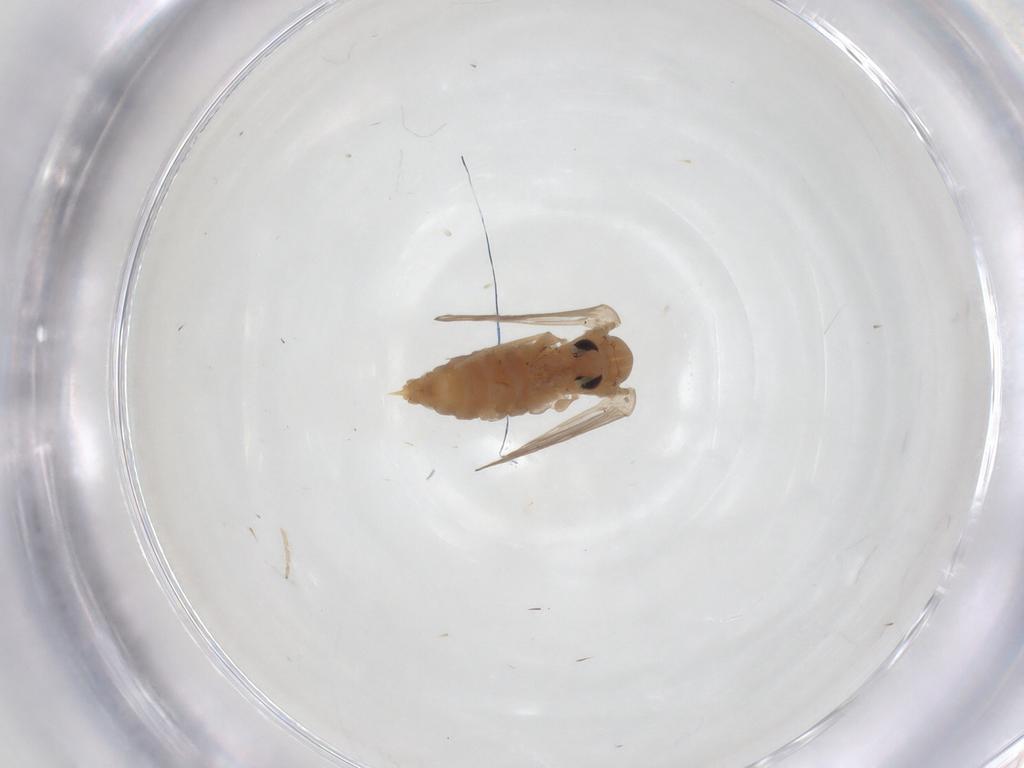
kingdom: Animalia
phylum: Arthropoda
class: Insecta
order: Diptera
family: Psychodidae
